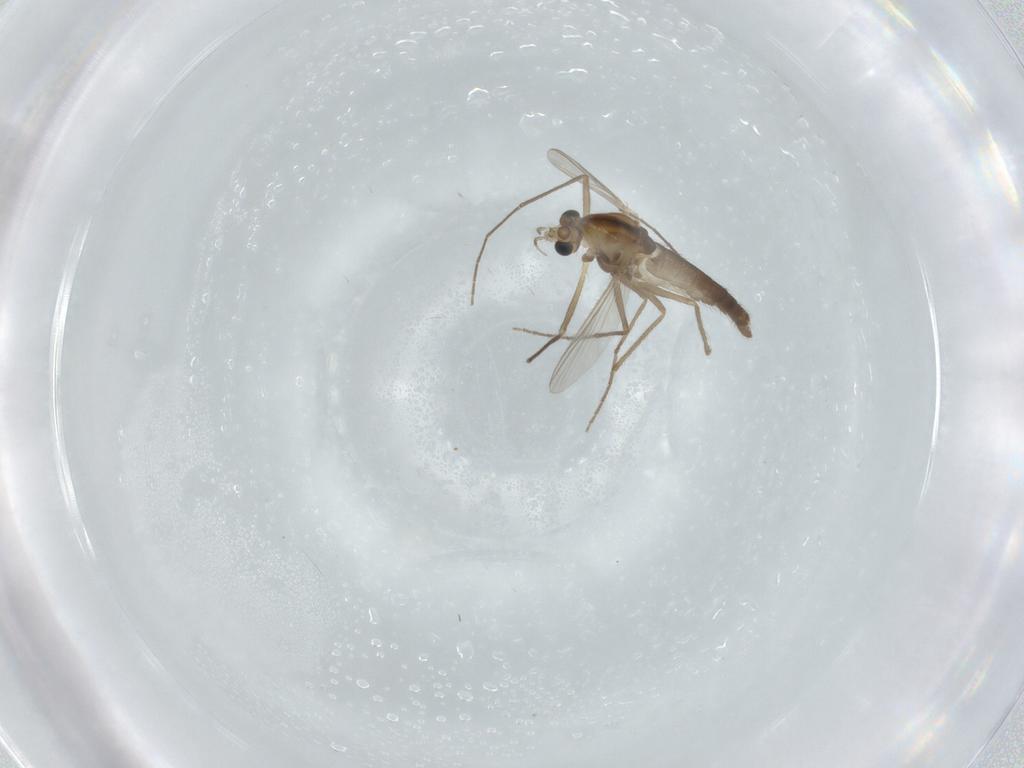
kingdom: Animalia
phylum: Arthropoda
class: Insecta
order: Diptera
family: Chironomidae
